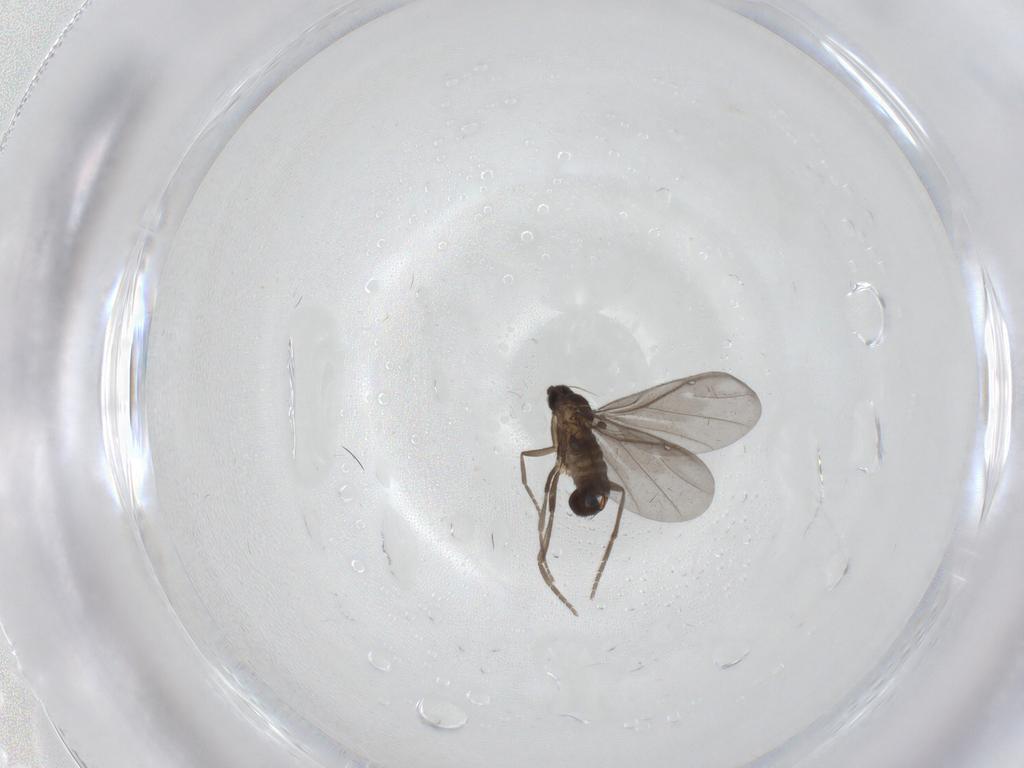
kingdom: Animalia
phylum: Arthropoda
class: Insecta
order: Diptera
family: Phoridae
